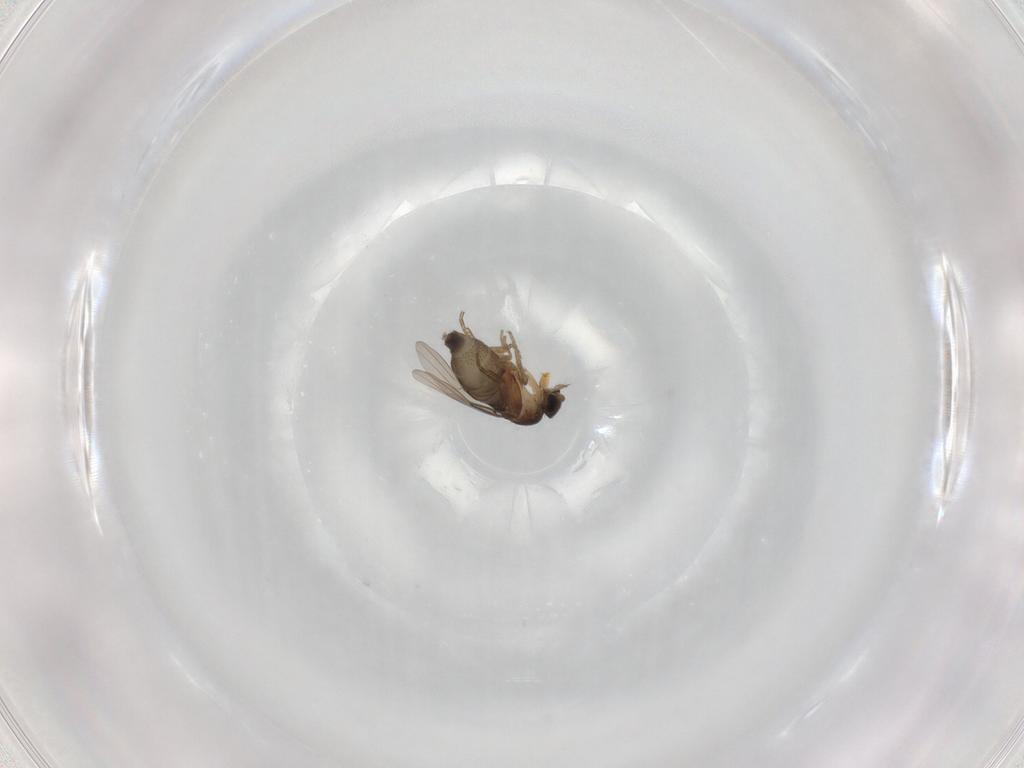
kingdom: Animalia
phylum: Arthropoda
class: Insecta
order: Diptera
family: Phoridae
